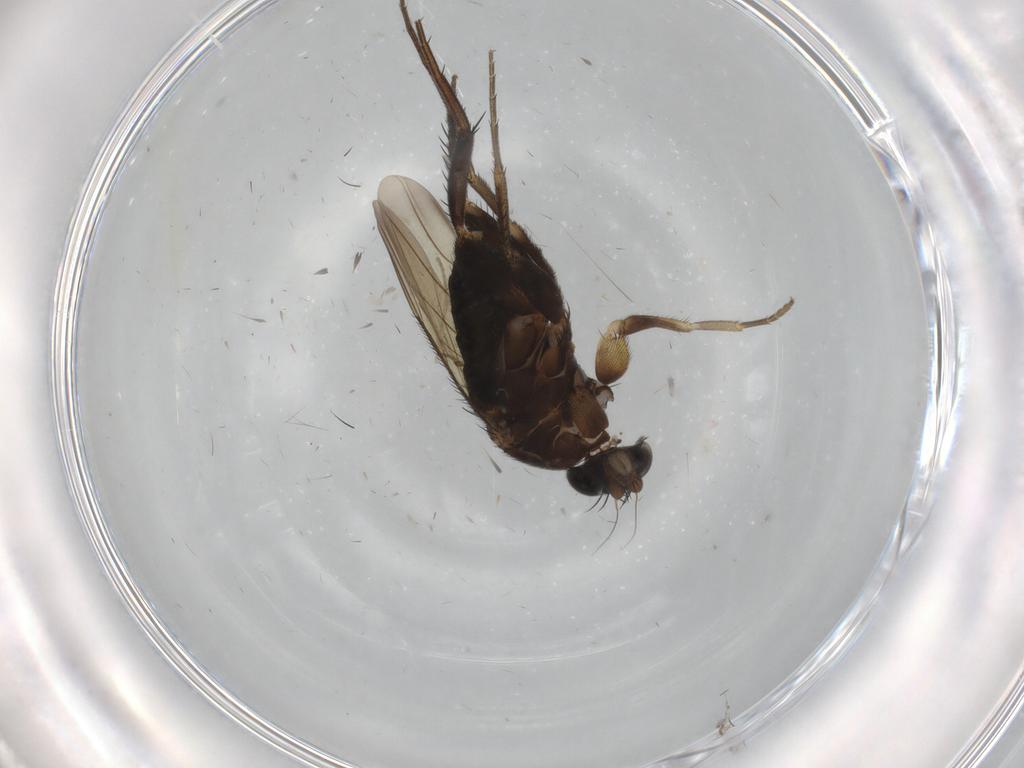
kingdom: Animalia
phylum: Arthropoda
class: Insecta
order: Diptera
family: Phoridae
